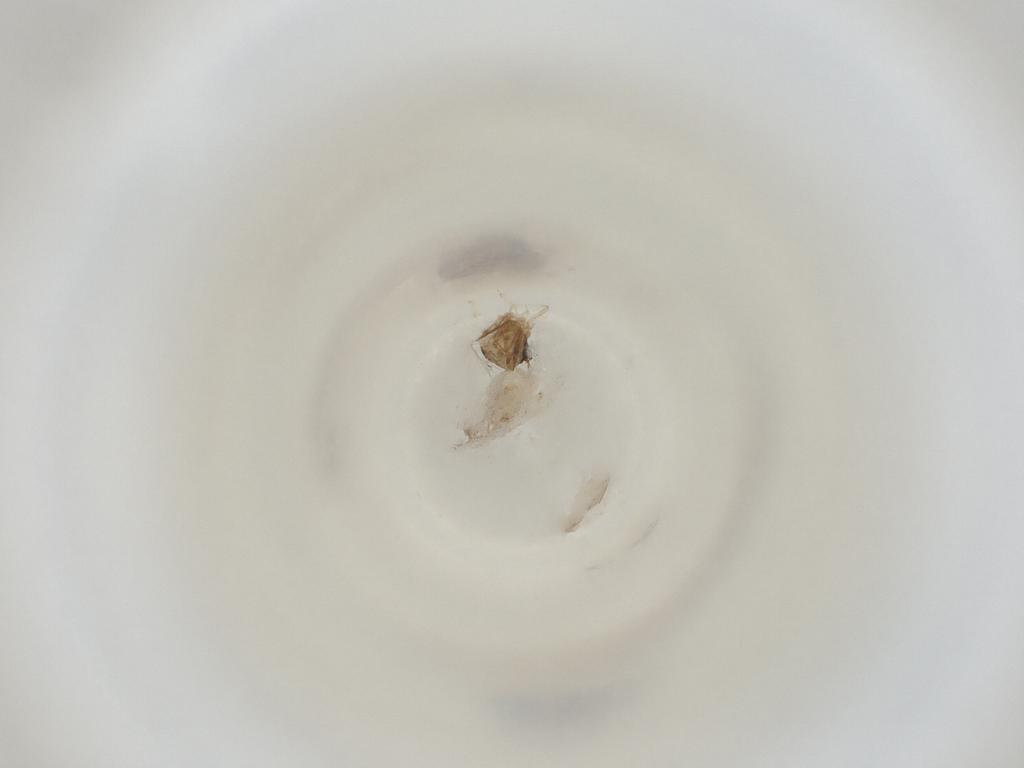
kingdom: Animalia
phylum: Arthropoda
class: Insecta
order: Diptera
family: Cecidomyiidae
